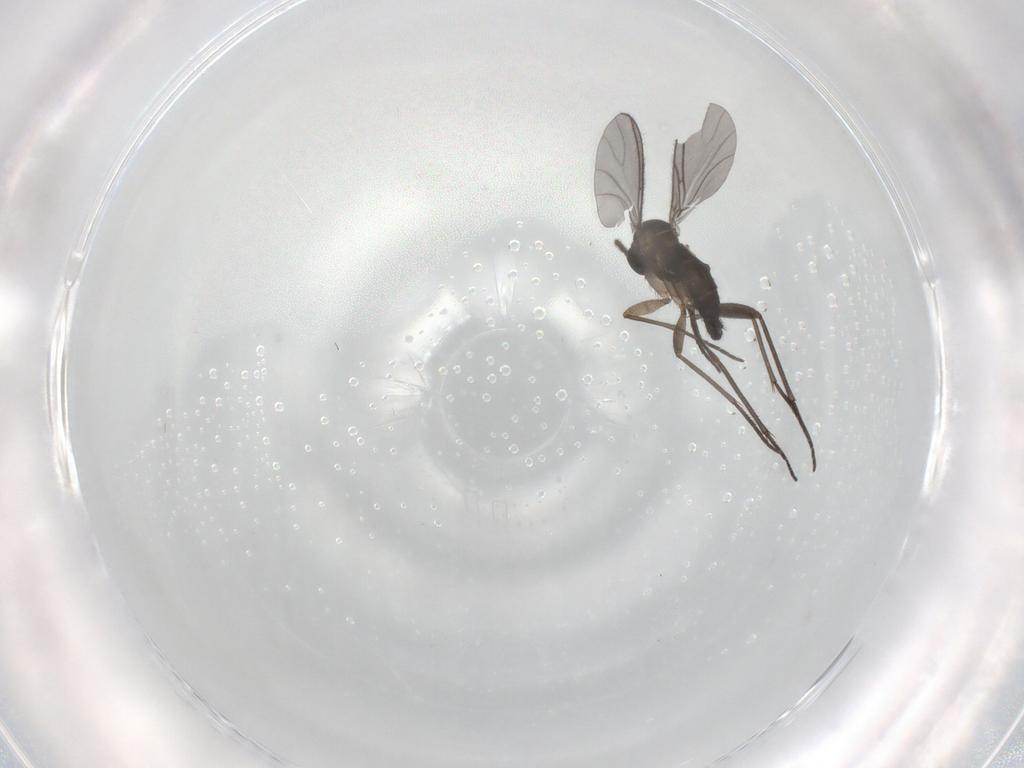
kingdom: Animalia
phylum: Arthropoda
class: Insecta
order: Diptera
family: Sciaridae
